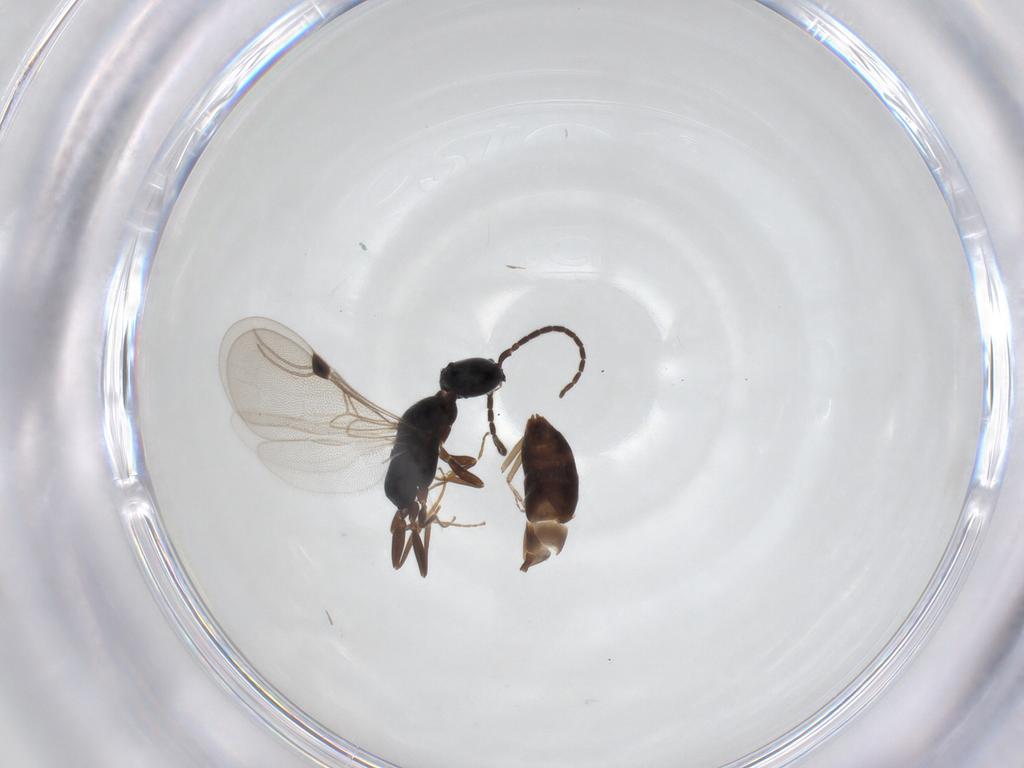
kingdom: Animalia
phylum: Arthropoda
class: Insecta
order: Hymenoptera
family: Bethylidae
